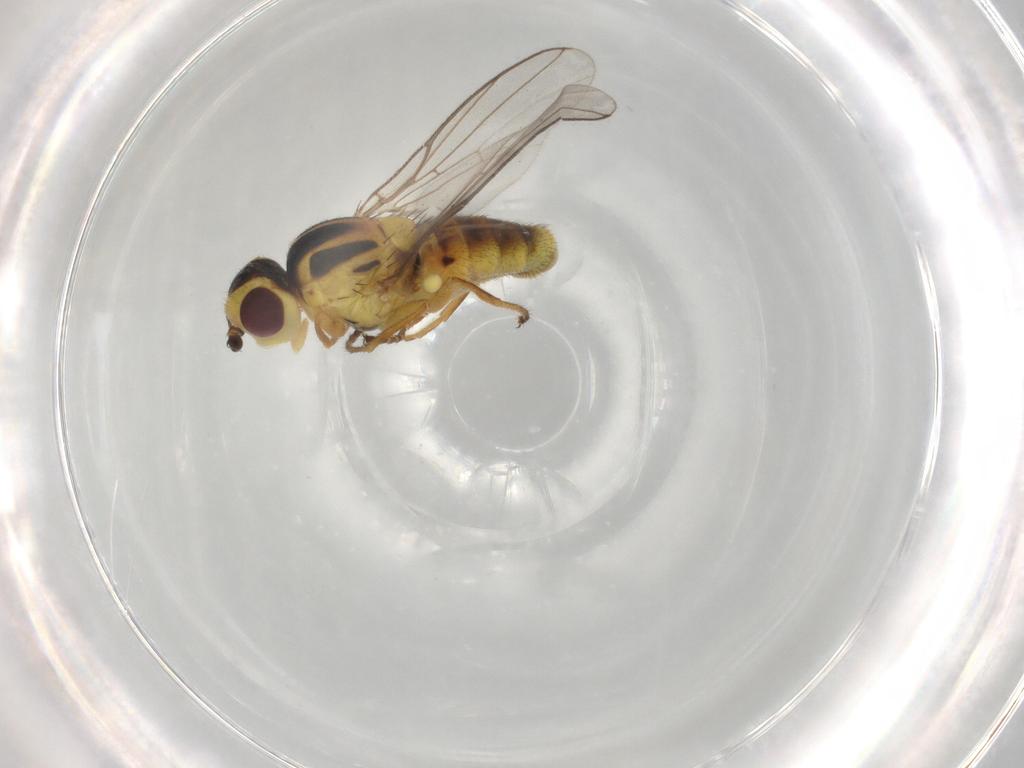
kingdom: Animalia
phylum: Arthropoda
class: Insecta
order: Diptera
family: Chloropidae
